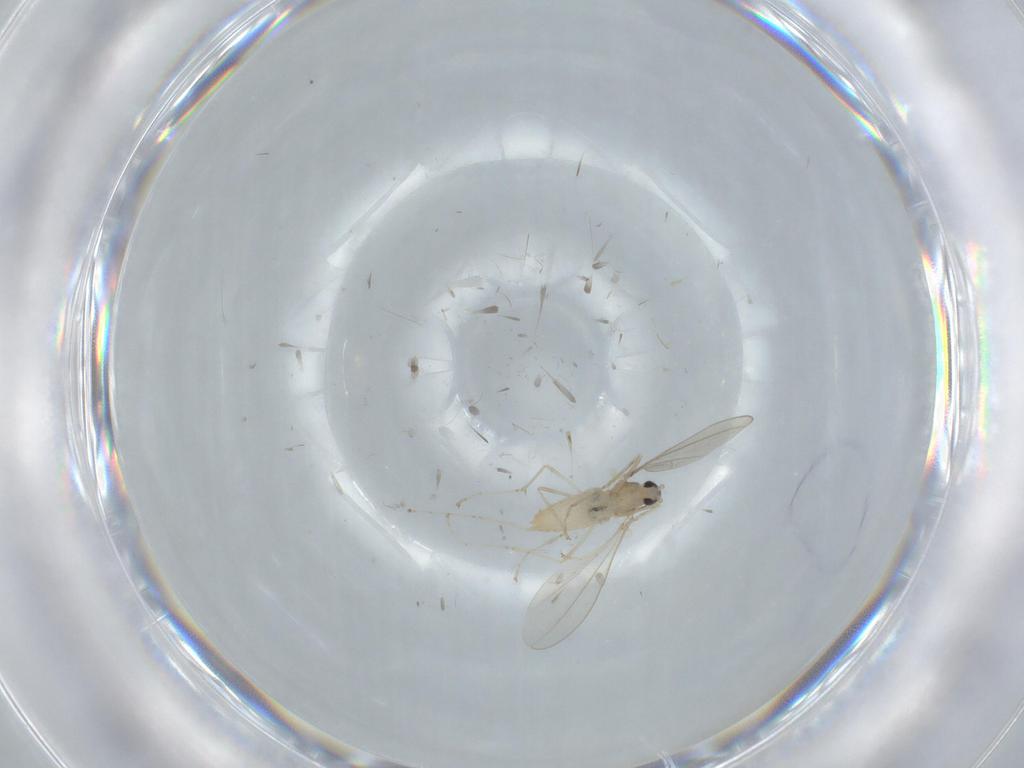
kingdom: Animalia
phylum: Arthropoda
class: Insecta
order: Diptera
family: Cecidomyiidae
